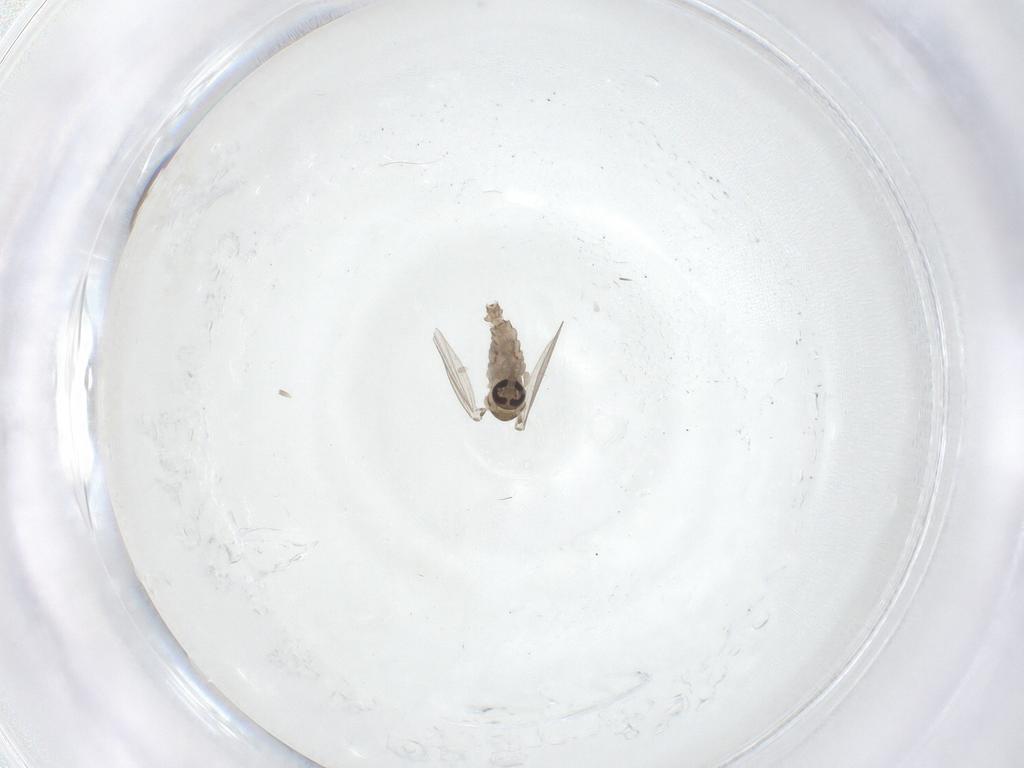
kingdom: Animalia
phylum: Arthropoda
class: Insecta
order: Diptera
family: Psychodidae
